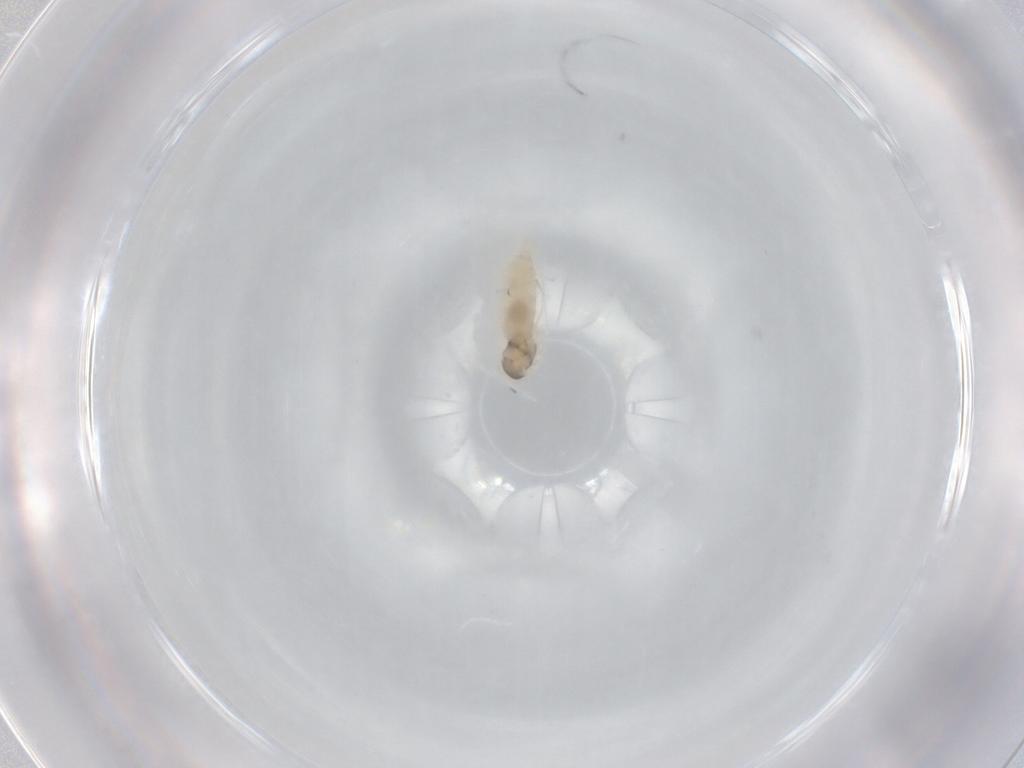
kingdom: Animalia
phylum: Arthropoda
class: Insecta
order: Diptera
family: Cecidomyiidae
